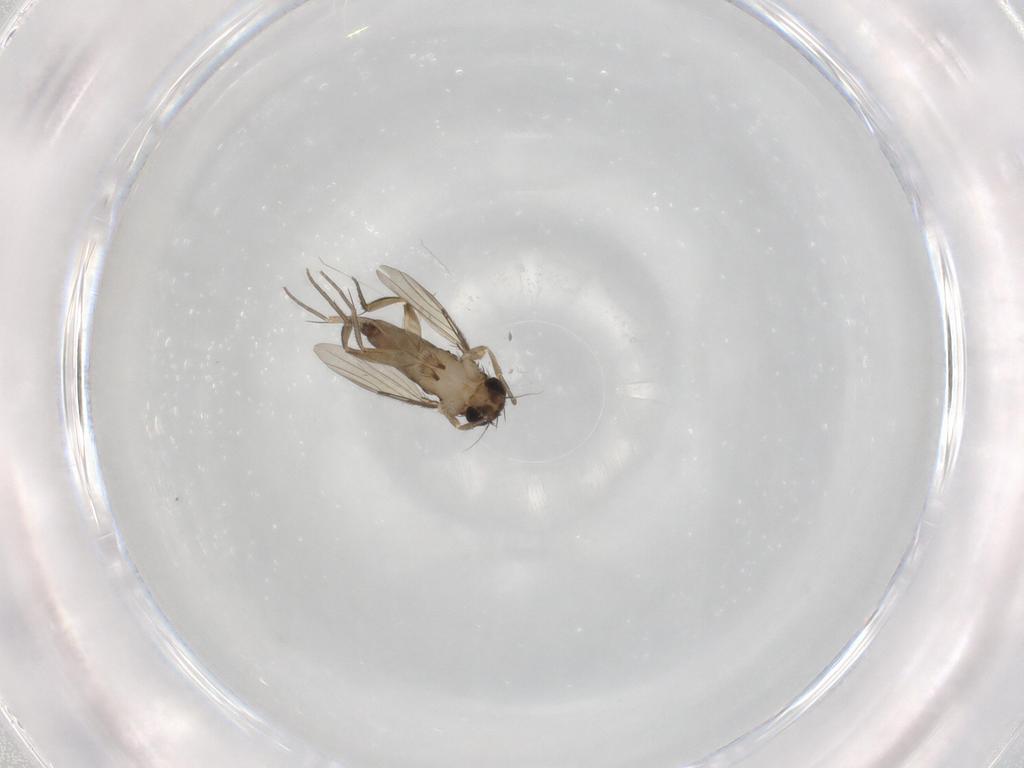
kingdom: Animalia
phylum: Arthropoda
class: Insecta
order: Diptera
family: Phoridae
